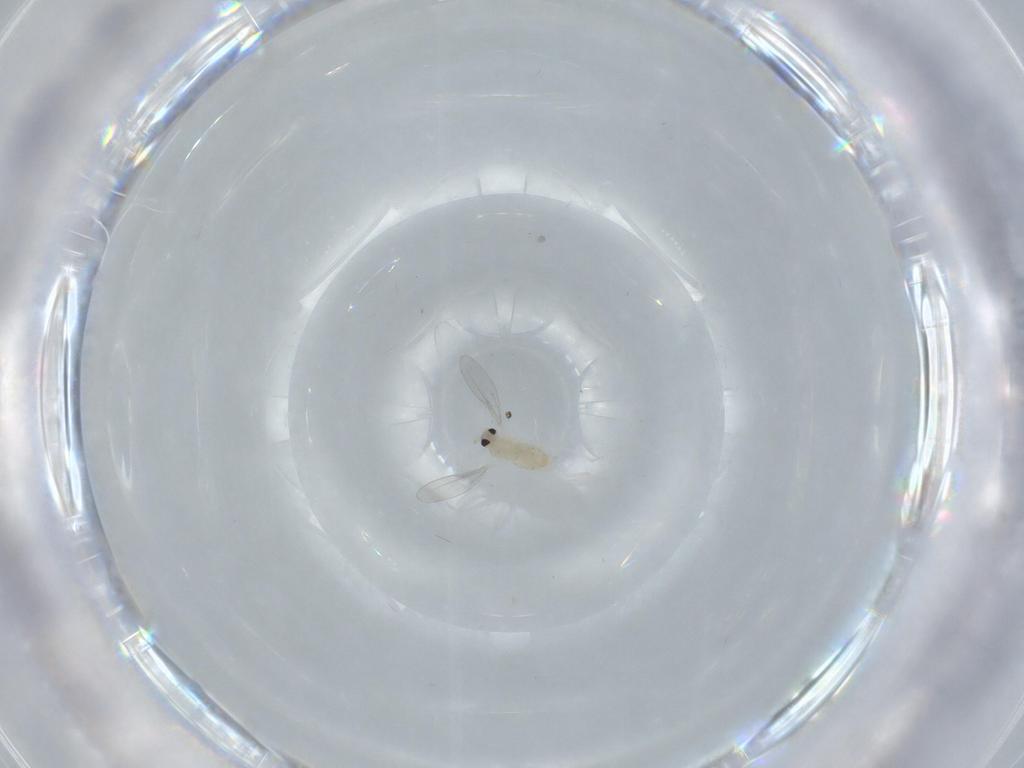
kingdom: Animalia
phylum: Arthropoda
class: Insecta
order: Diptera
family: Cecidomyiidae
